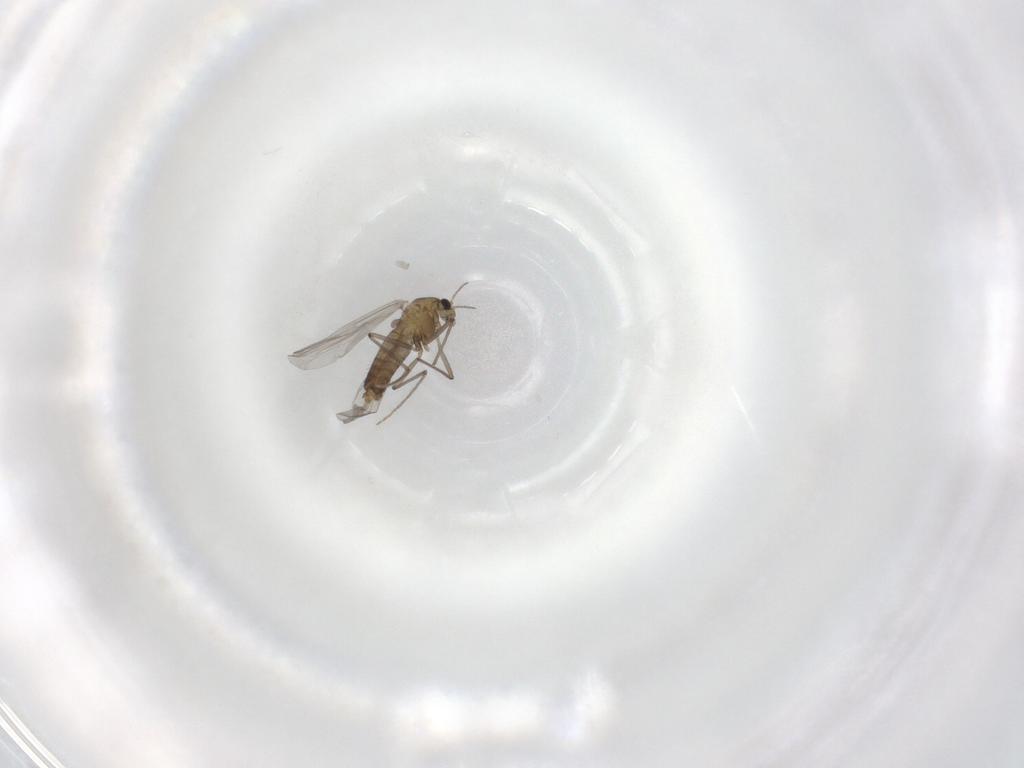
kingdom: Animalia
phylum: Arthropoda
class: Insecta
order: Diptera
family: Chironomidae
